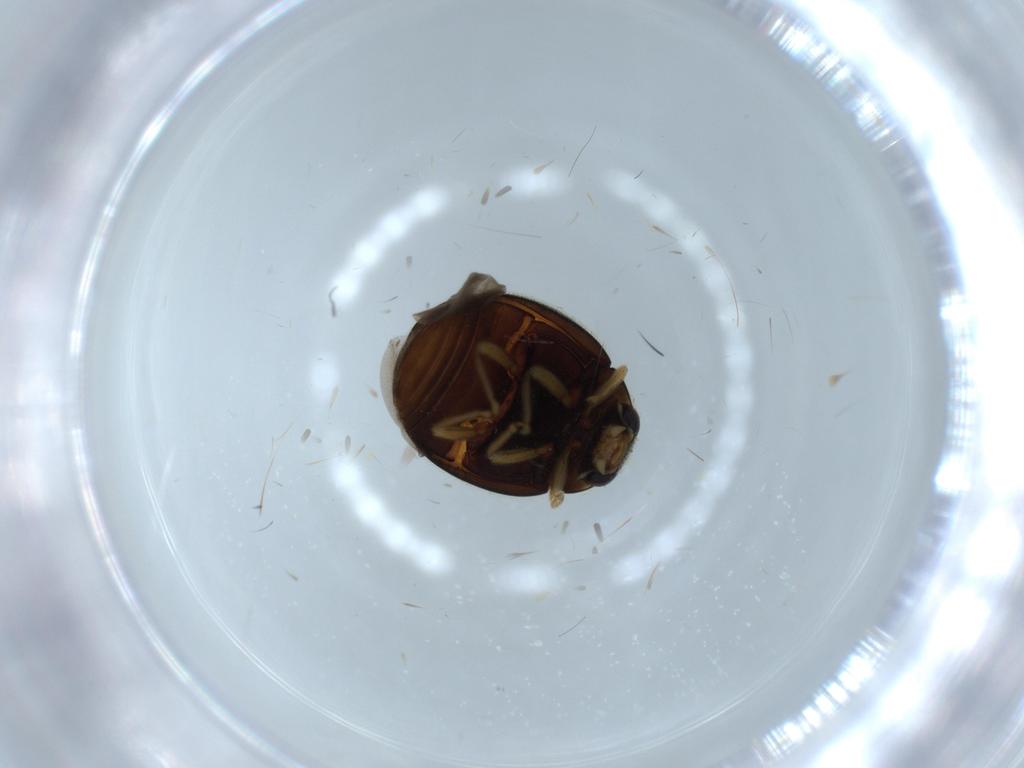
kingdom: Animalia
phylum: Arthropoda
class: Insecta
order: Coleoptera
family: Coccinellidae
